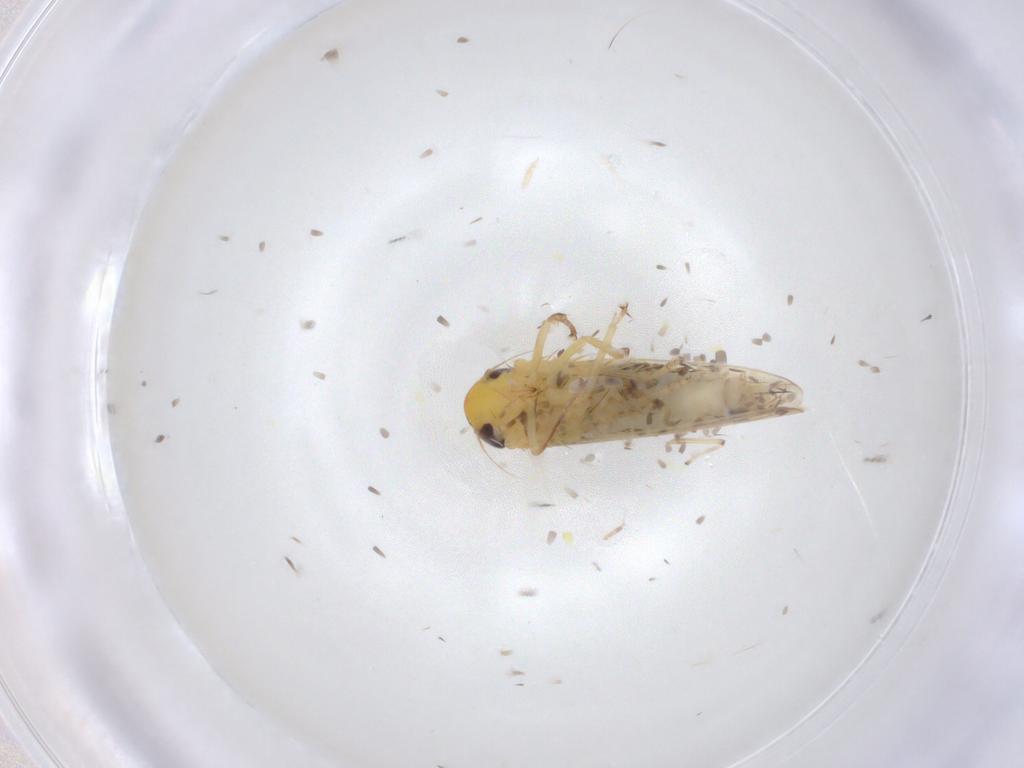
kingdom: Animalia
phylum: Arthropoda
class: Insecta
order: Hemiptera
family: Cicadellidae
